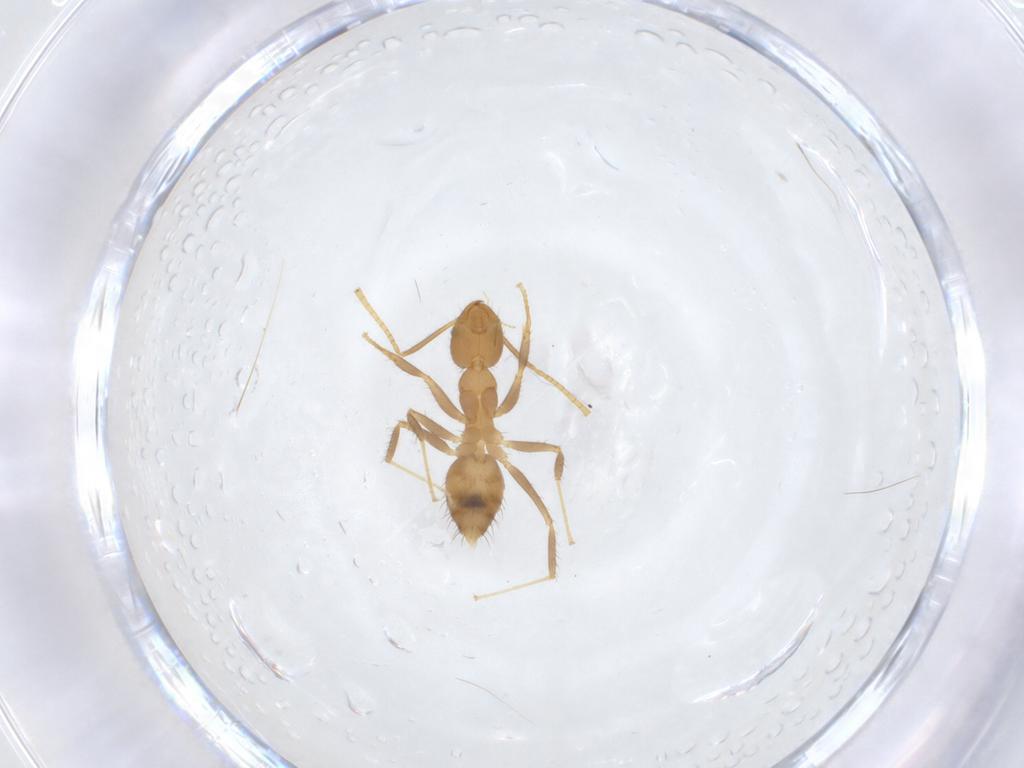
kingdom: Animalia
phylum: Arthropoda
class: Insecta
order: Hymenoptera
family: Formicidae
